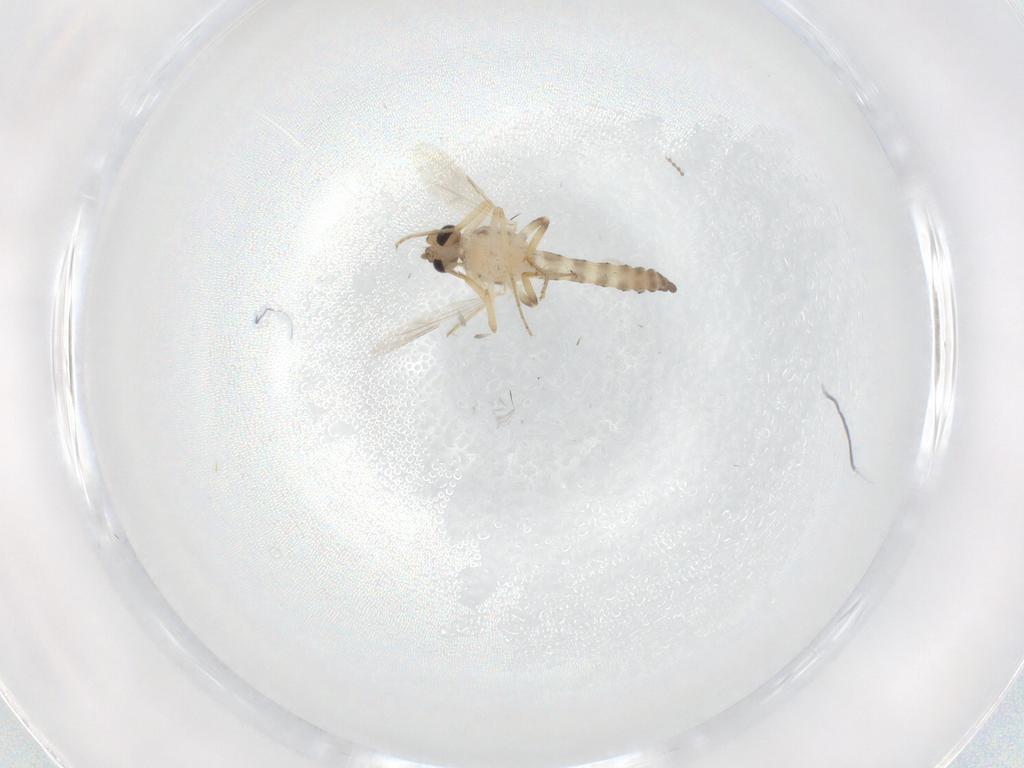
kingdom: Animalia
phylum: Arthropoda
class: Insecta
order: Diptera
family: Ceratopogonidae
